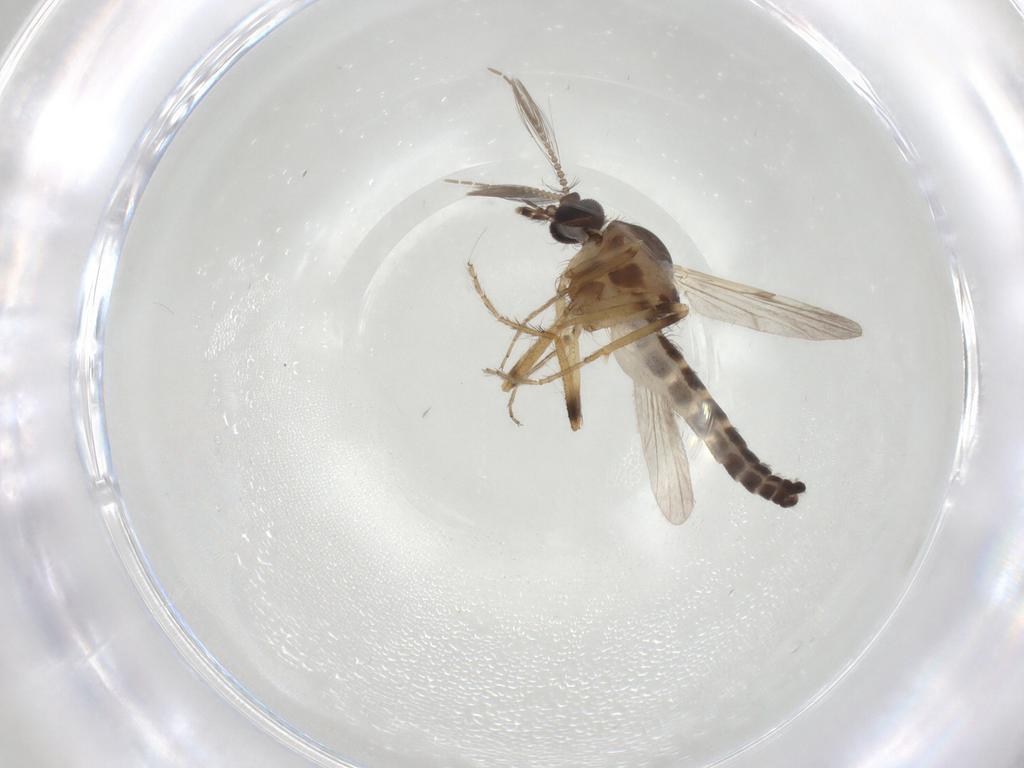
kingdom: Animalia
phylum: Arthropoda
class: Insecta
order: Diptera
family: Ceratopogonidae
